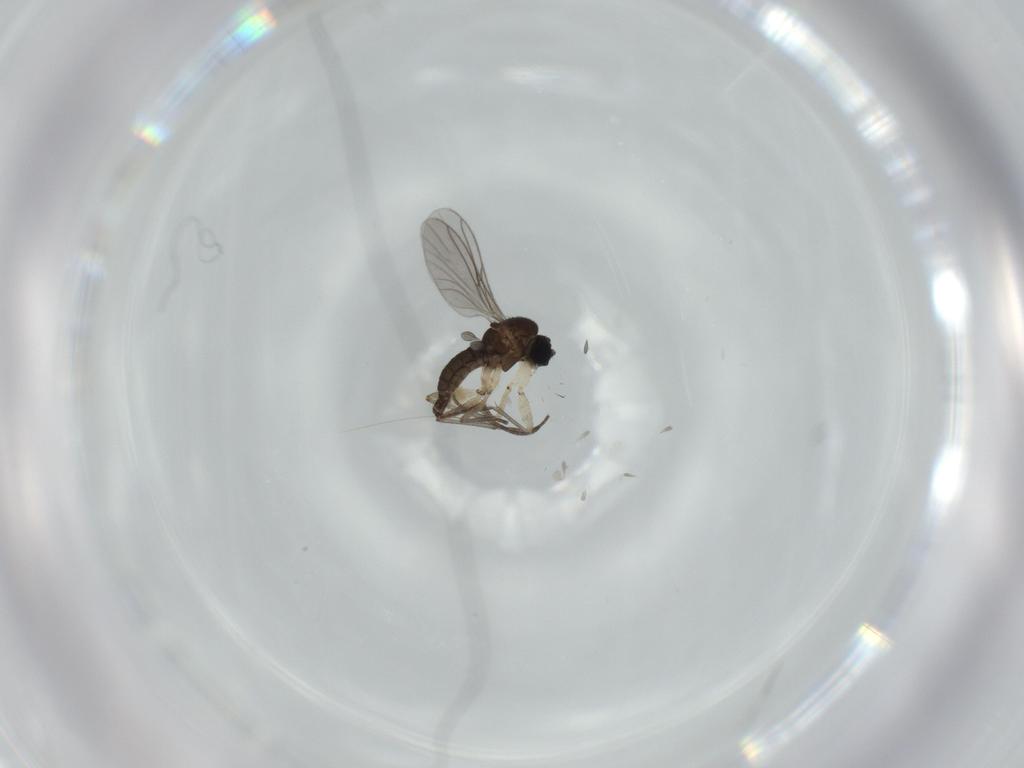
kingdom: Animalia
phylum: Arthropoda
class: Insecta
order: Diptera
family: Sciaridae
